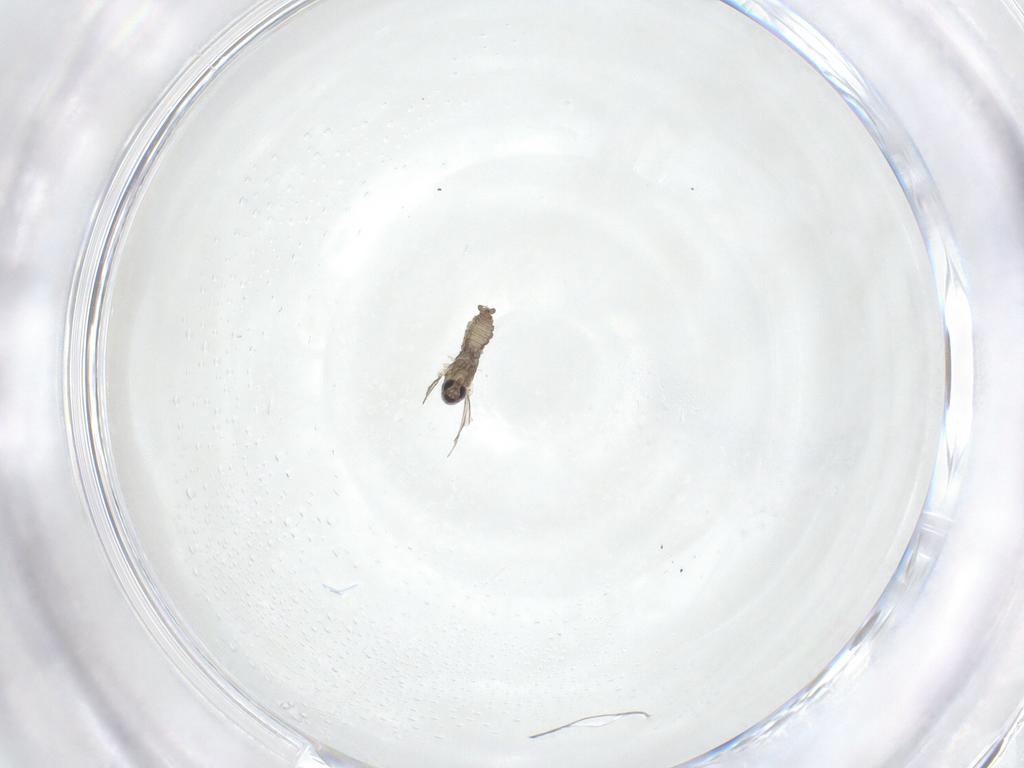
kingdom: Animalia
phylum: Arthropoda
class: Insecta
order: Diptera
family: Cecidomyiidae
